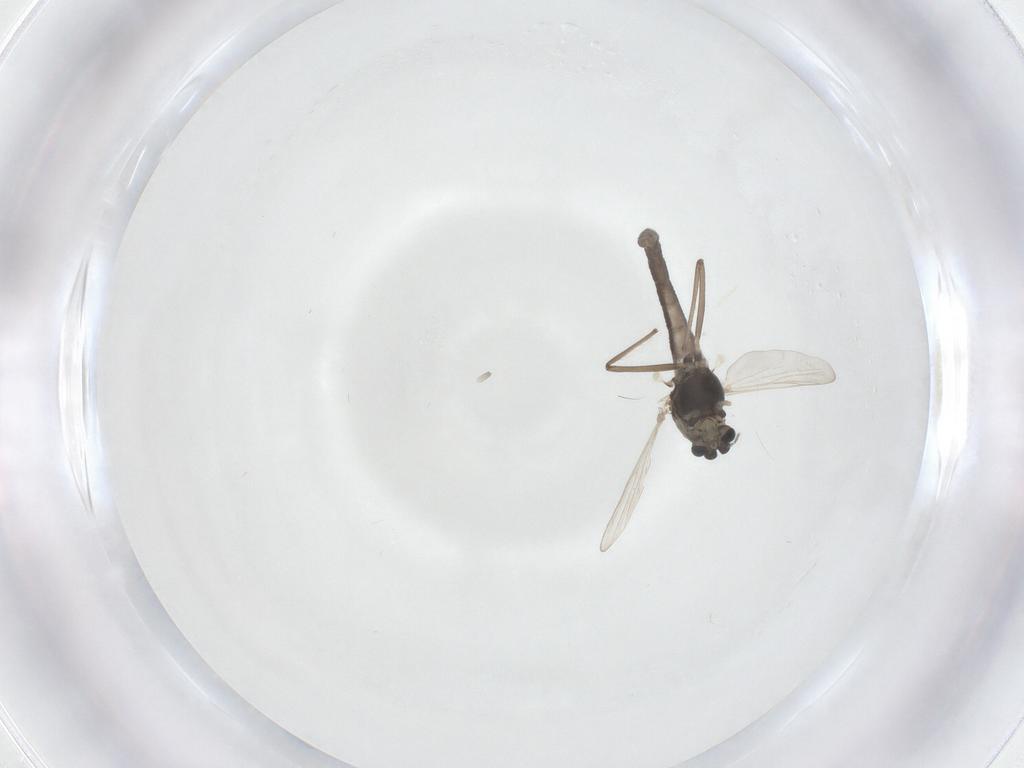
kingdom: Animalia
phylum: Arthropoda
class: Insecta
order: Diptera
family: Chironomidae
